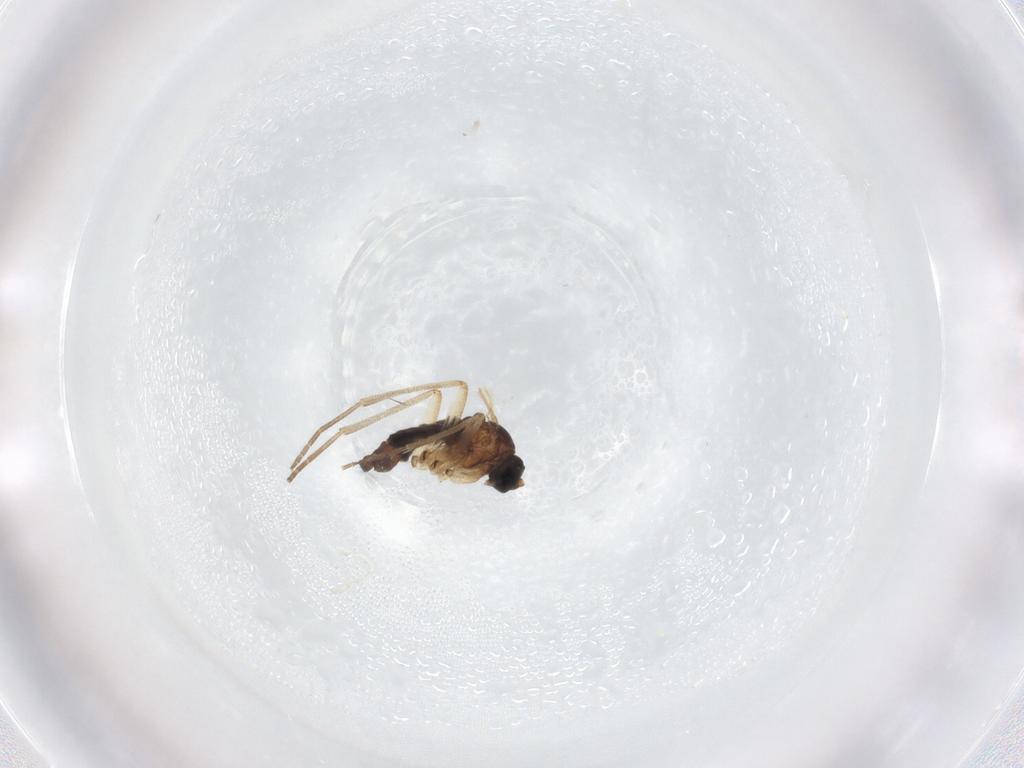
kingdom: Animalia
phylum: Arthropoda
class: Insecta
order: Diptera
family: Sciaridae
